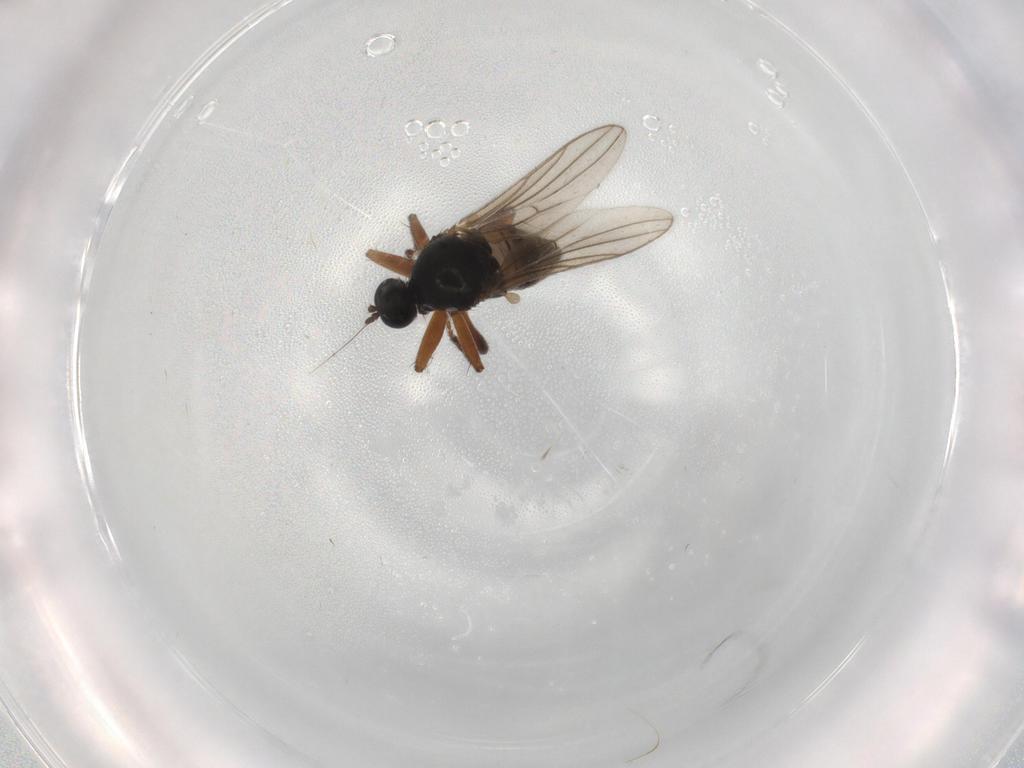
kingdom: Animalia
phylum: Arthropoda
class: Insecta
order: Diptera
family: Hybotidae
